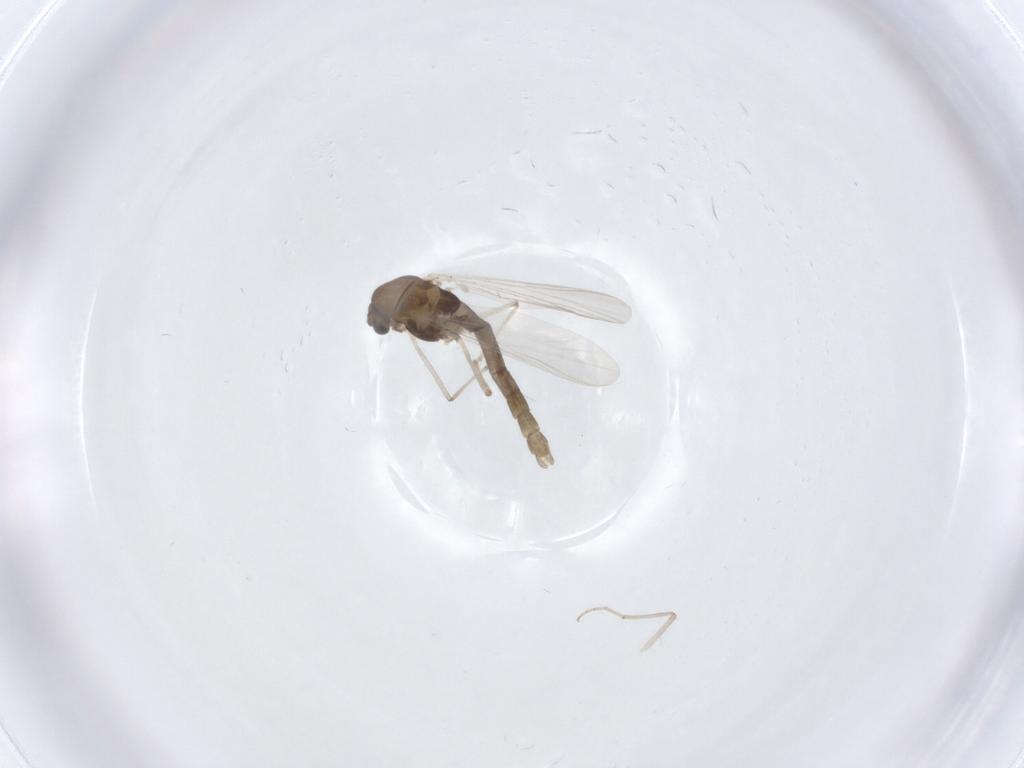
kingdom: Animalia
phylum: Arthropoda
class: Insecta
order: Diptera
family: Chironomidae
